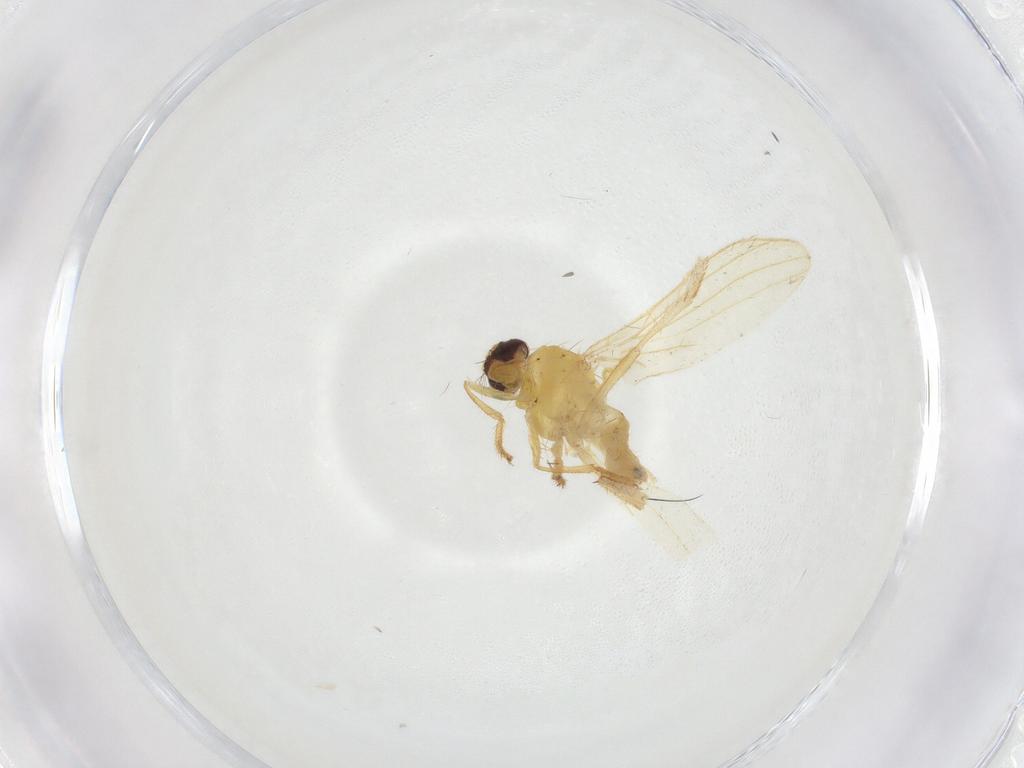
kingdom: Animalia
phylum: Arthropoda
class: Insecta
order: Diptera
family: Periscelididae
